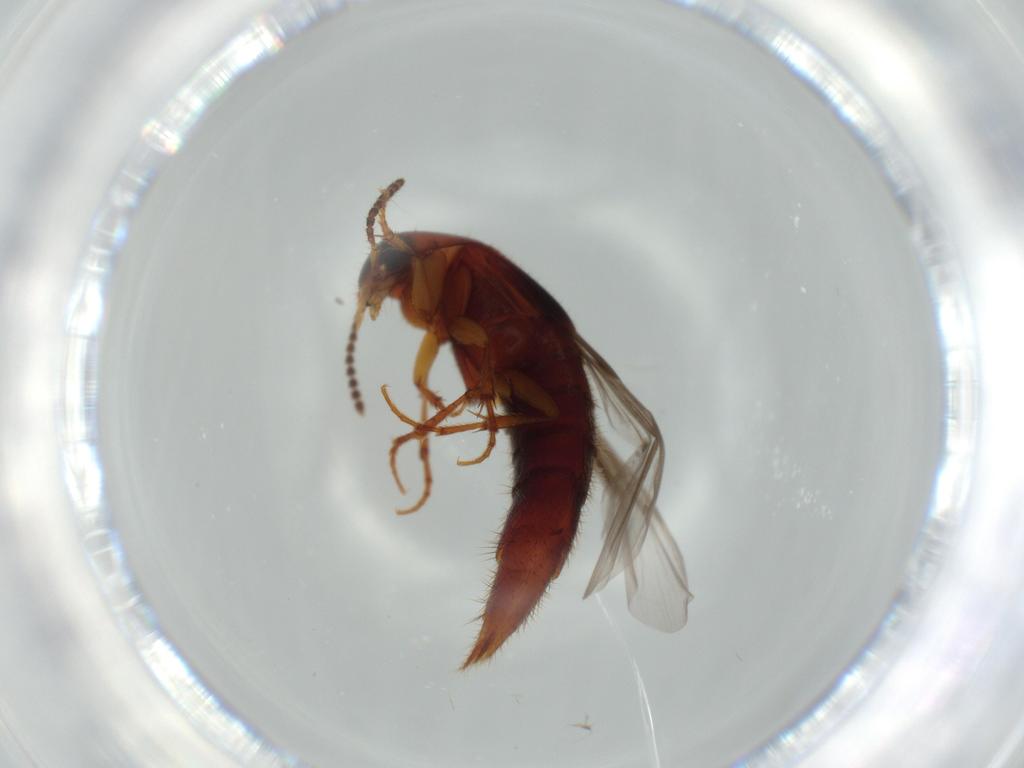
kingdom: Animalia
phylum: Arthropoda
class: Insecta
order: Coleoptera
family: Staphylinidae
